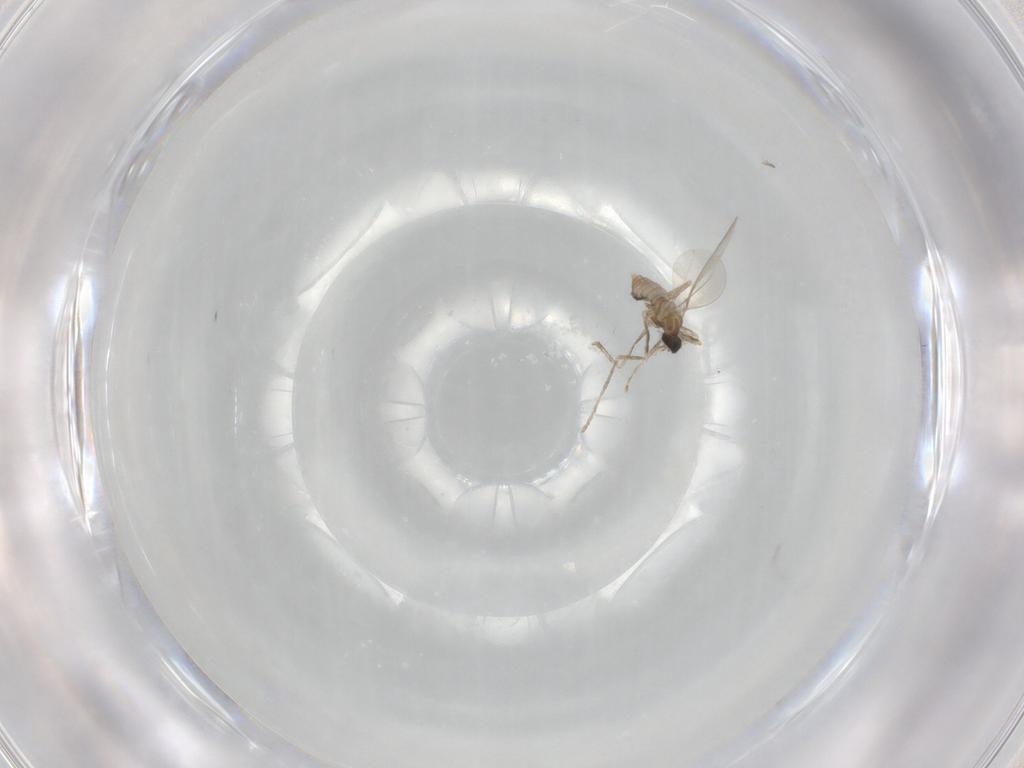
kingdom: Animalia
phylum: Arthropoda
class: Insecta
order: Diptera
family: Cecidomyiidae
